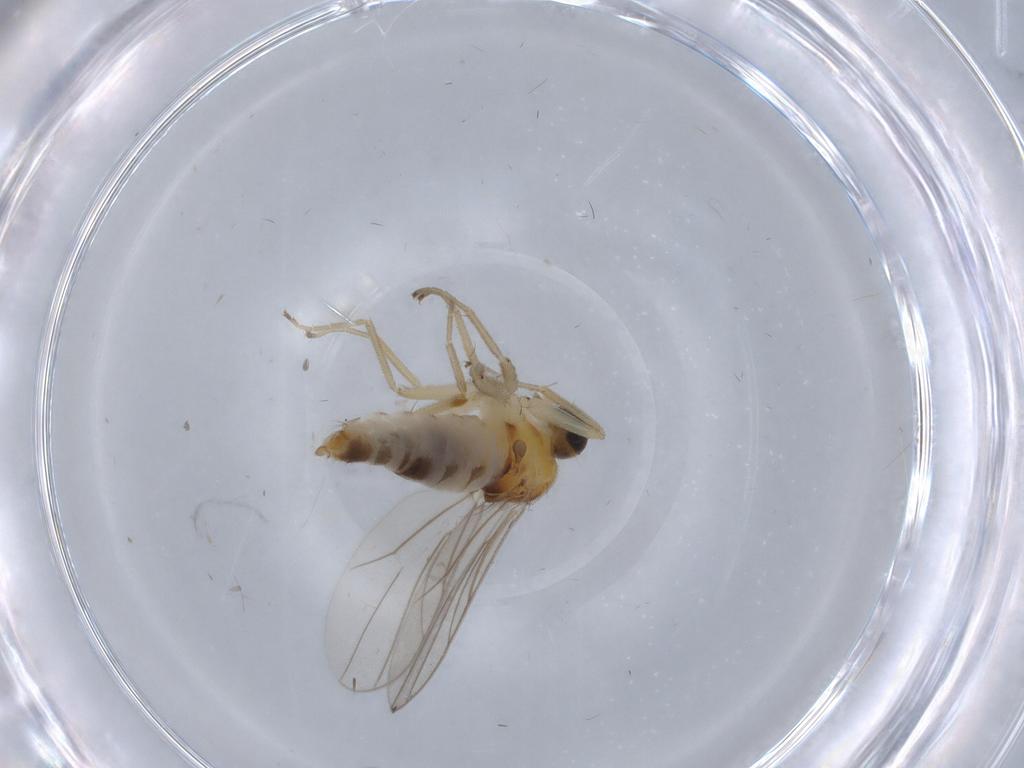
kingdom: Animalia
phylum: Arthropoda
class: Insecta
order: Diptera
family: Hybotidae
